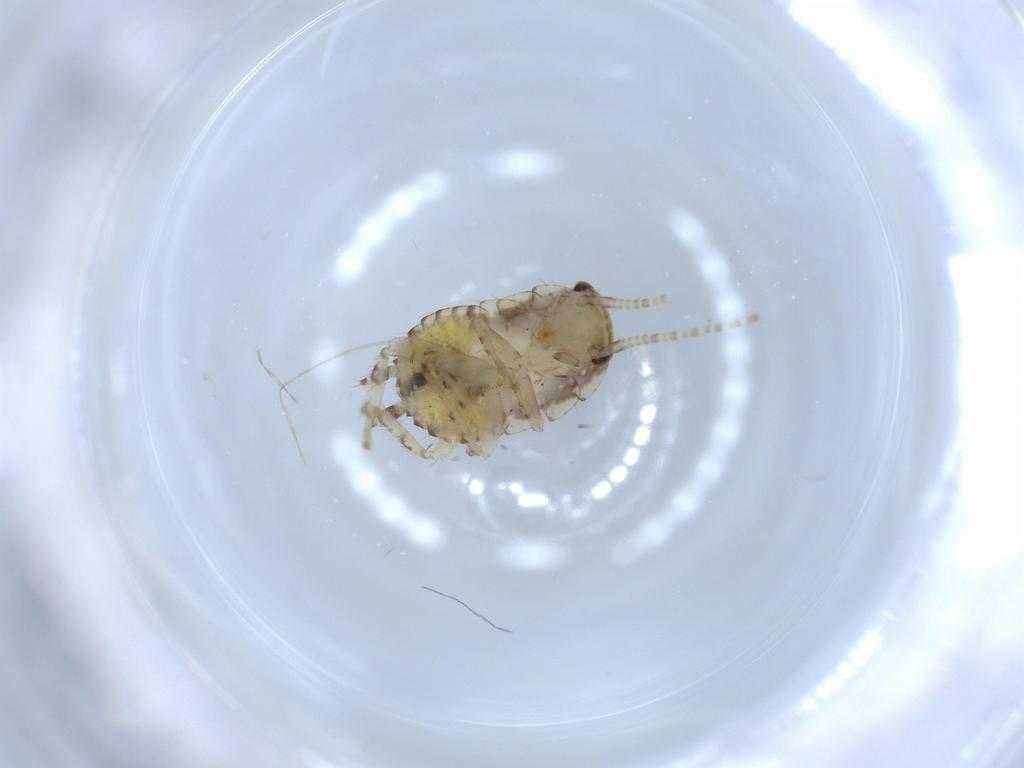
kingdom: Animalia
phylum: Arthropoda
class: Insecta
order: Blattodea
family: Ectobiidae
